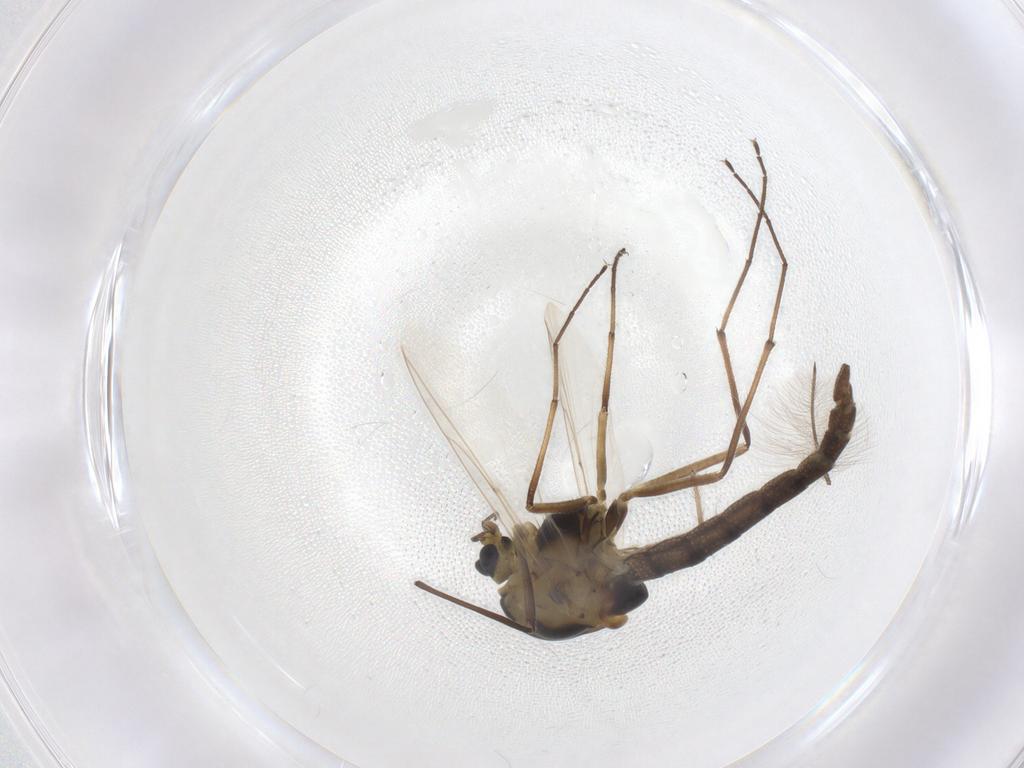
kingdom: Animalia
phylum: Arthropoda
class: Insecta
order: Diptera
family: Chironomidae
